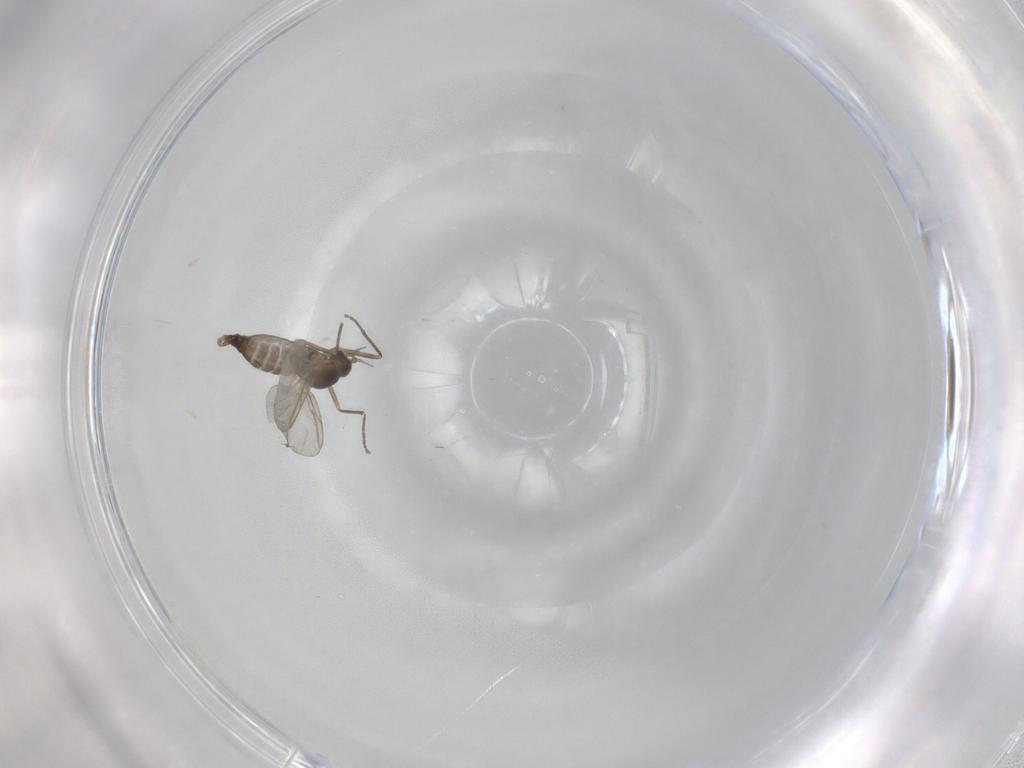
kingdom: Animalia
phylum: Arthropoda
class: Insecta
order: Diptera
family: Cecidomyiidae
